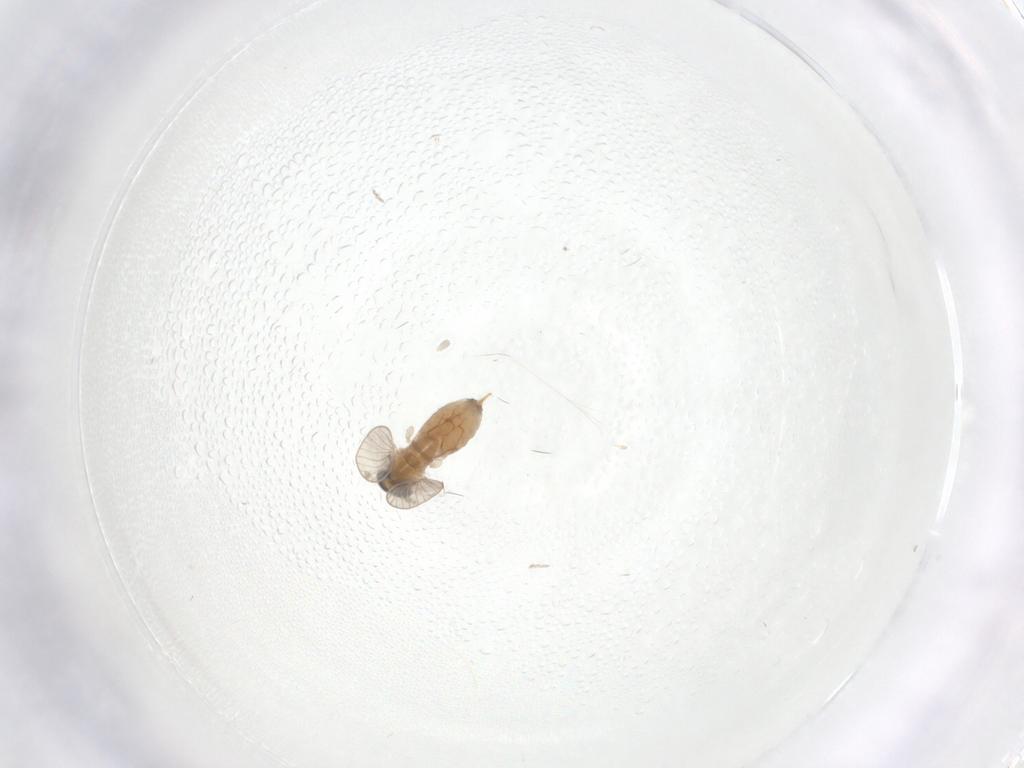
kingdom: Animalia
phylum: Arthropoda
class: Insecta
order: Diptera
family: Psychodidae
